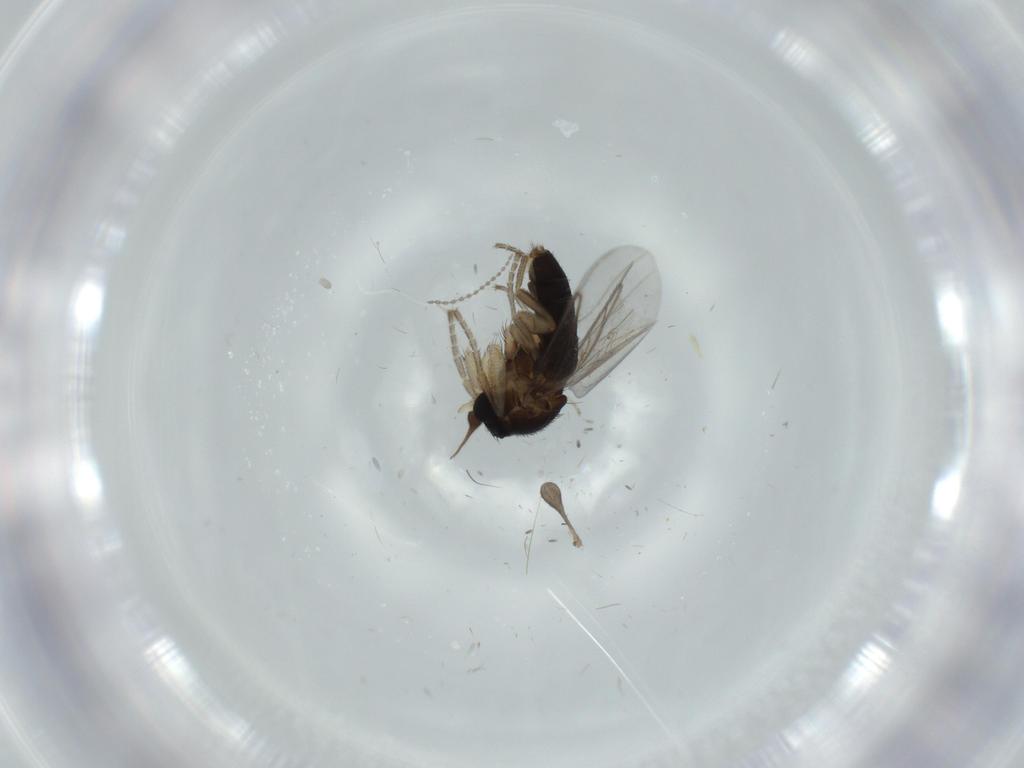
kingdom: Animalia
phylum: Arthropoda
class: Insecta
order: Diptera
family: Cecidomyiidae
